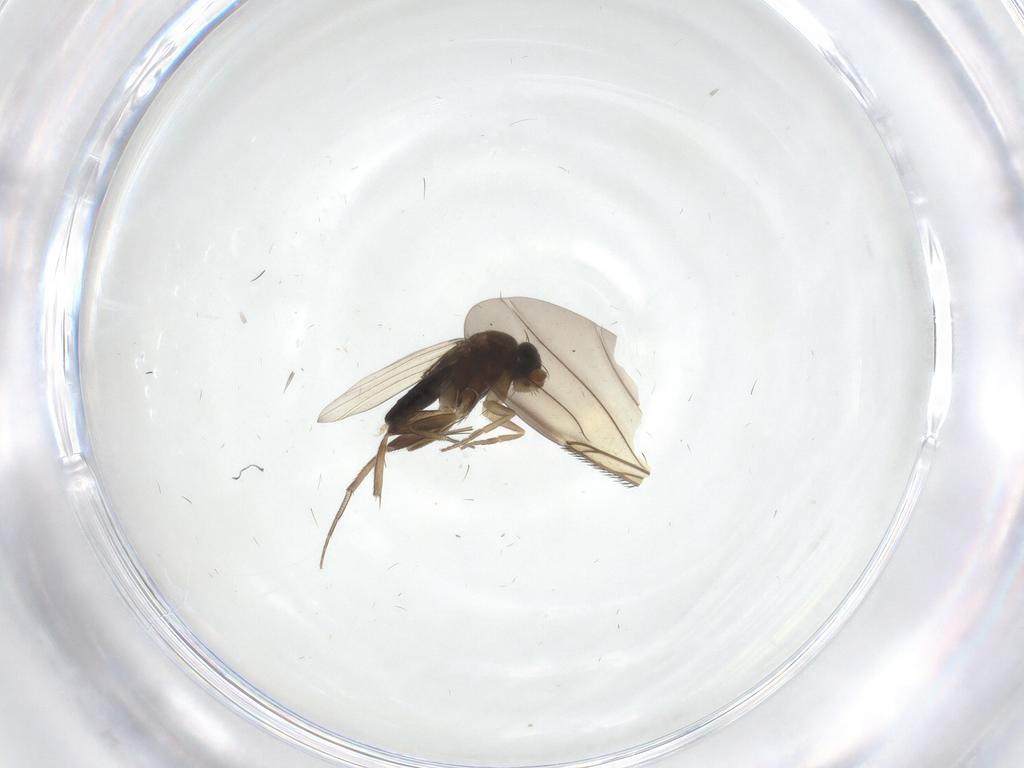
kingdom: Animalia
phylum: Arthropoda
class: Insecta
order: Diptera
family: Phoridae
